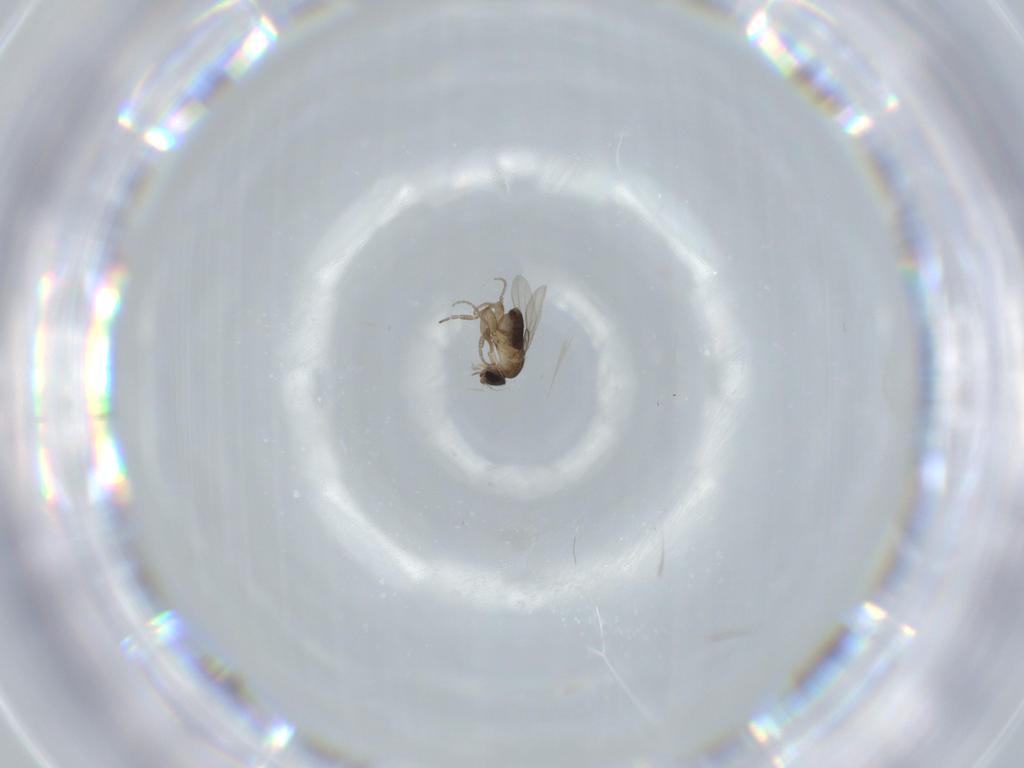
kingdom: Animalia
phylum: Arthropoda
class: Insecta
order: Diptera
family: Phoridae
